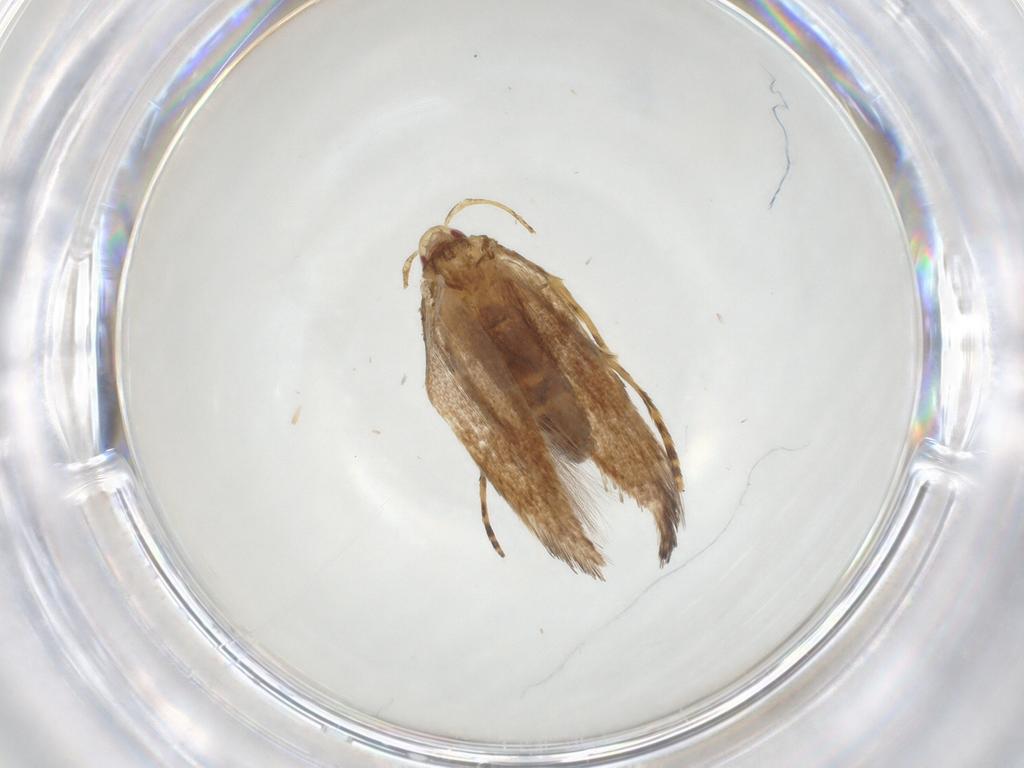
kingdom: Animalia
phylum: Arthropoda
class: Insecta
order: Lepidoptera
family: Cosmopterigidae
